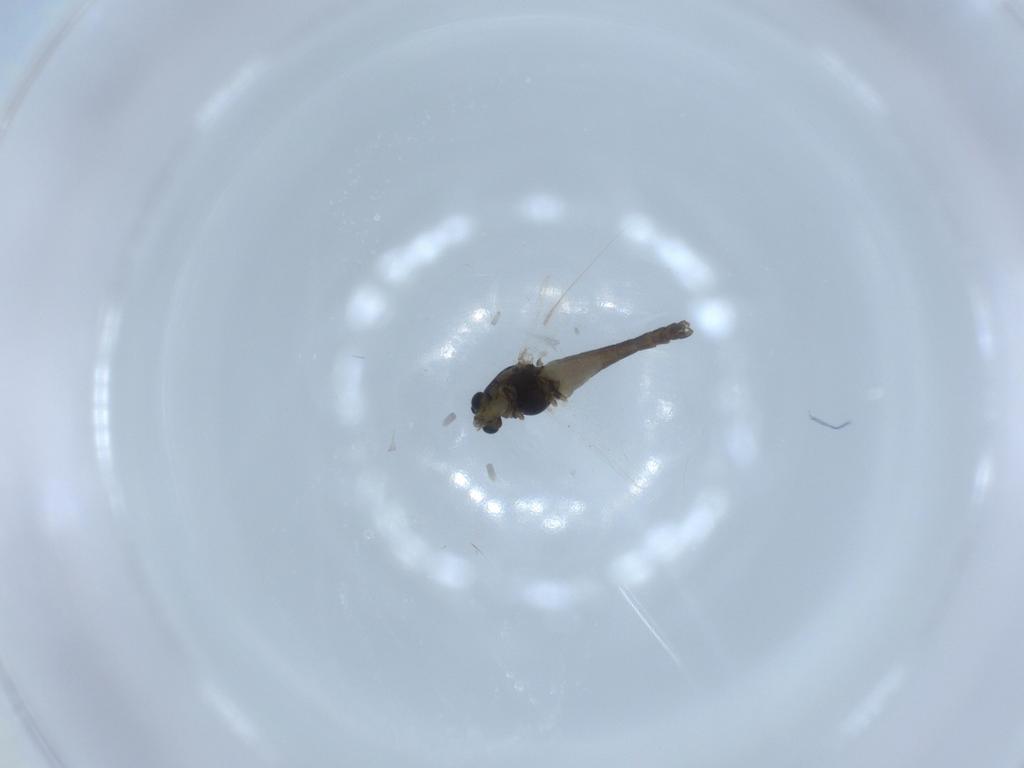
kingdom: Animalia
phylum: Arthropoda
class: Insecta
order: Diptera
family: Chironomidae
